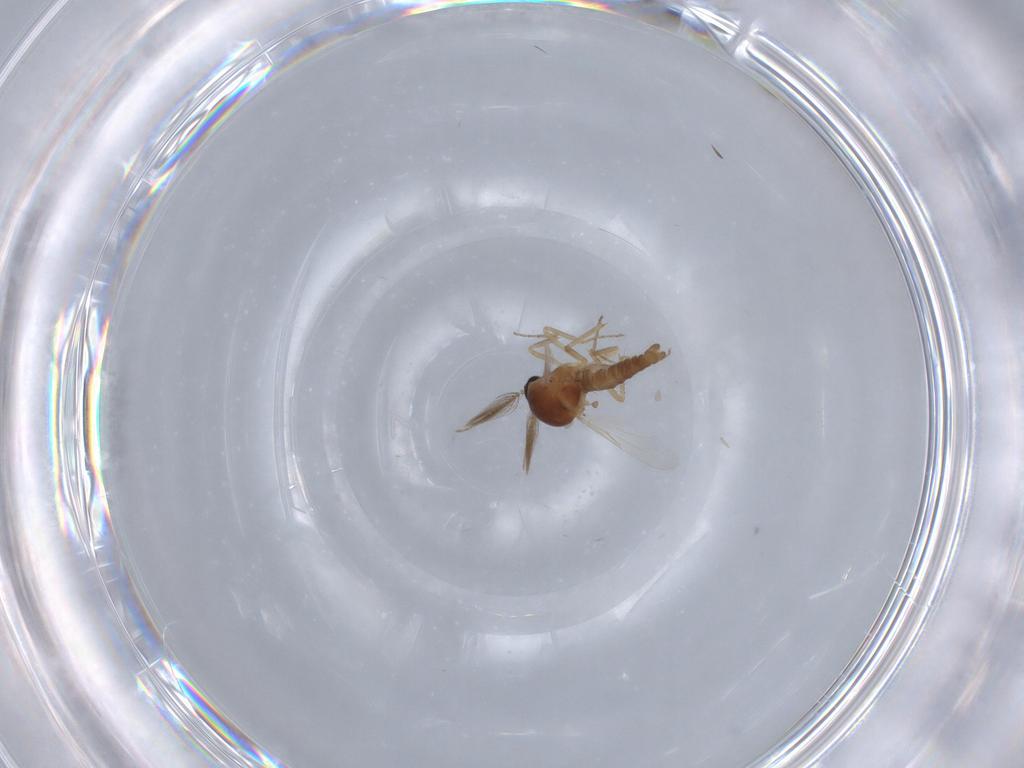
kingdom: Animalia
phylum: Arthropoda
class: Insecta
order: Diptera
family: Ceratopogonidae
